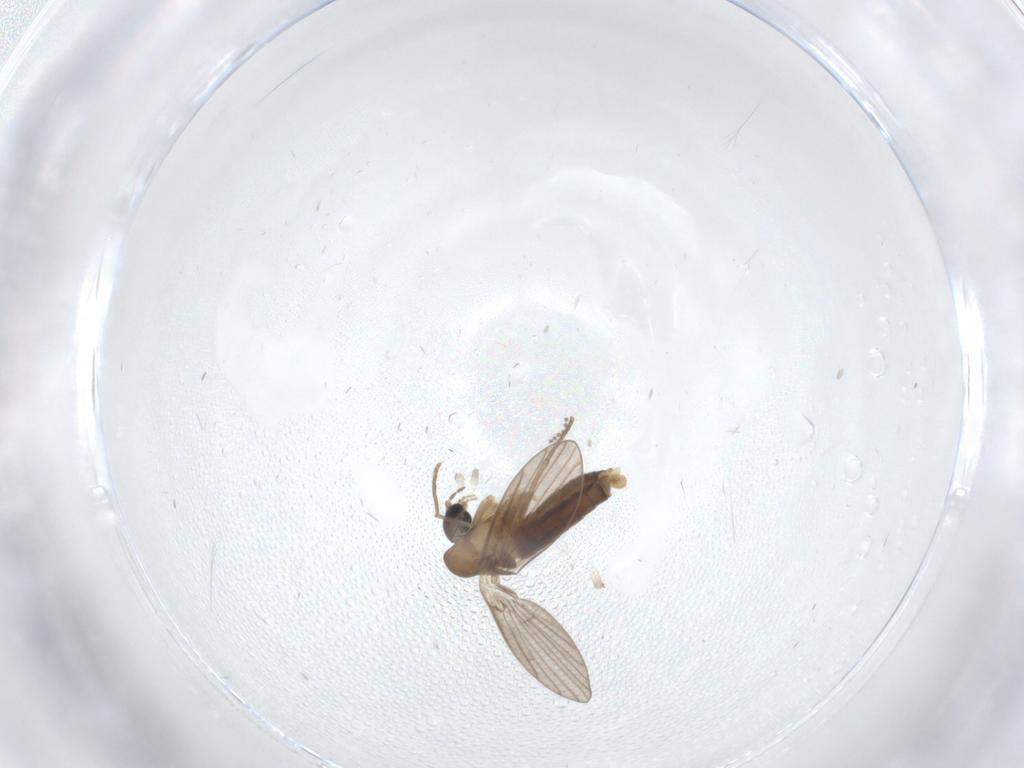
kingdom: Animalia
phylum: Arthropoda
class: Insecta
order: Diptera
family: Cecidomyiidae
